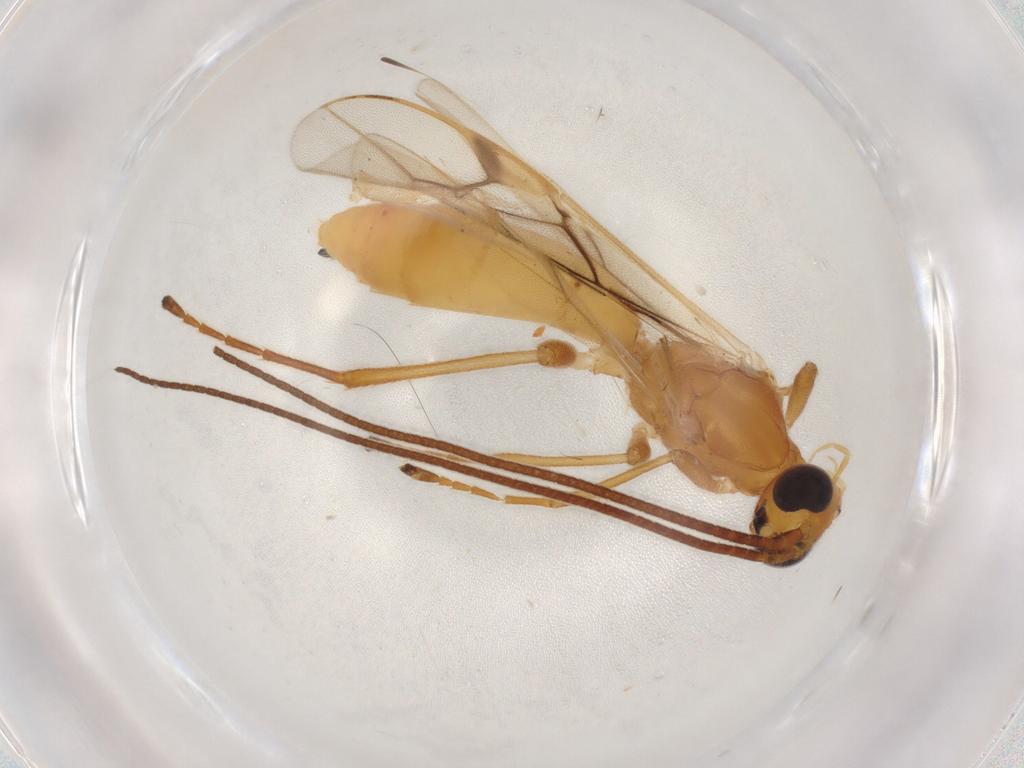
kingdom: Animalia
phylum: Arthropoda
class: Insecta
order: Hymenoptera
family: Braconidae
